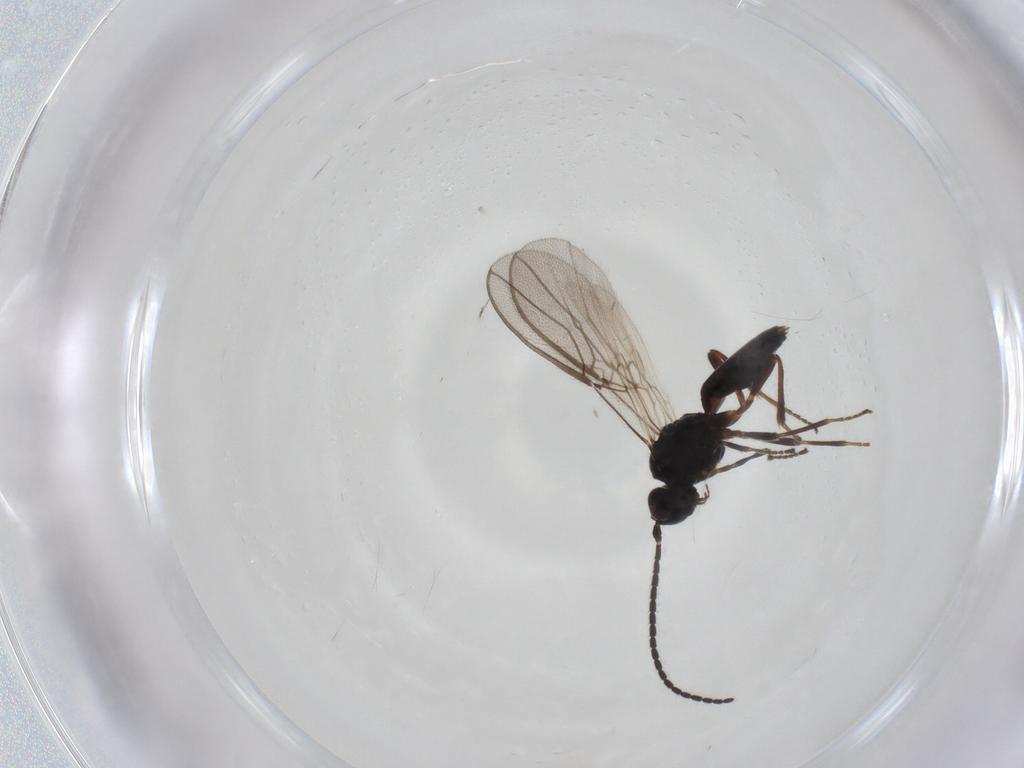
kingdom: Animalia
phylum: Arthropoda
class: Insecta
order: Hymenoptera
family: Braconidae
